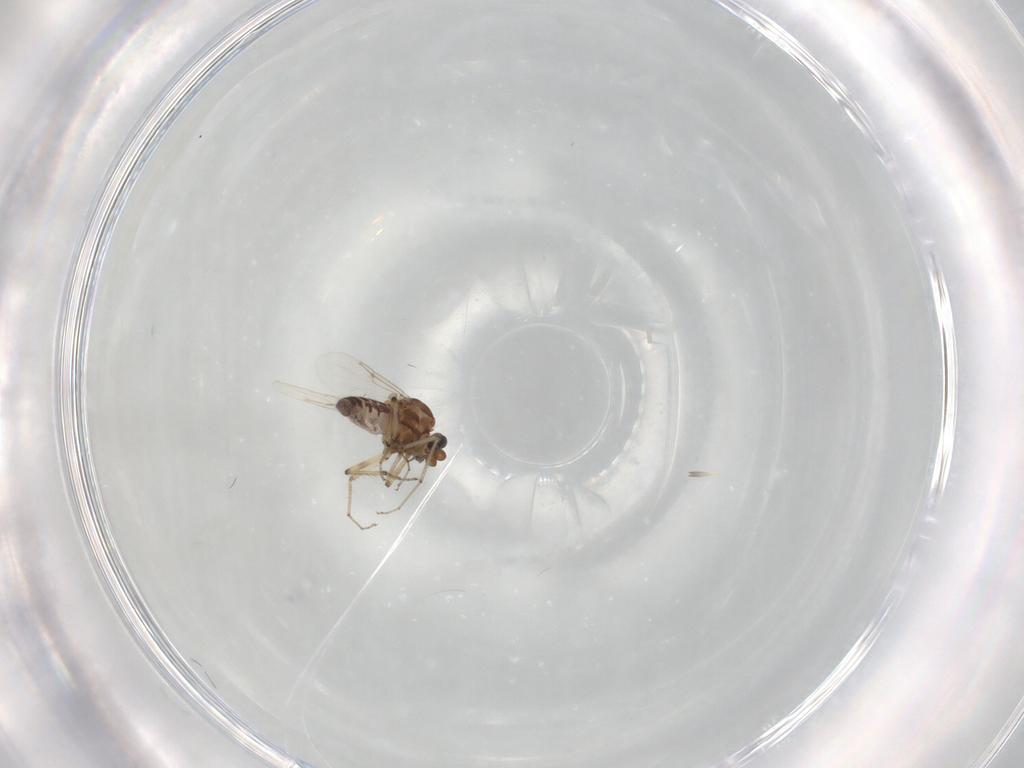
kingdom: Animalia
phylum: Arthropoda
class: Insecta
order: Diptera
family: Ceratopogonidae
